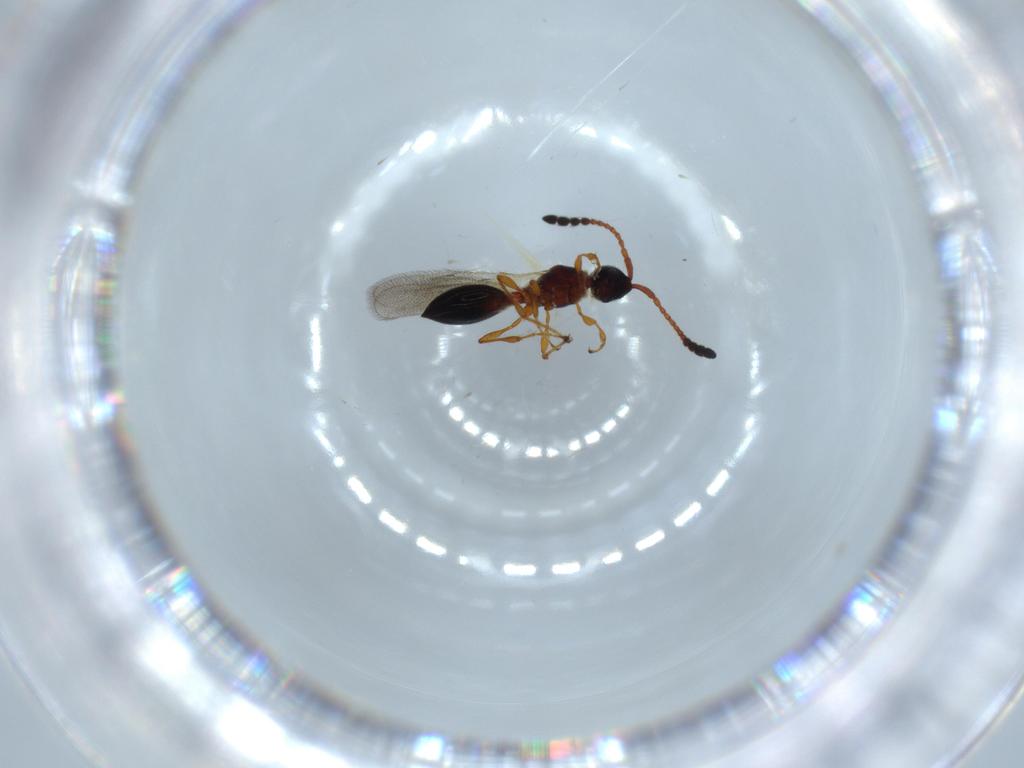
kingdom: Animalia
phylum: Arthropoda
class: Insecta
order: Hymenoptera
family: Diapriidae
